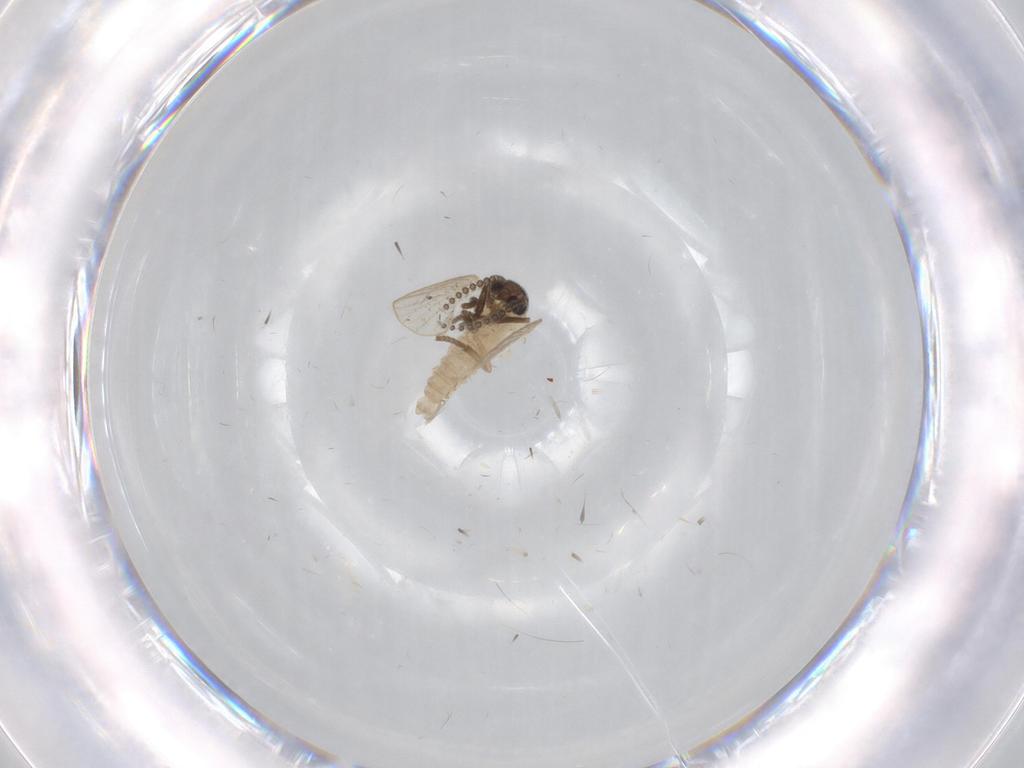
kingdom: Animalia
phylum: Arthropoda
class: Insecta
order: Diptera
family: Psychodidae
